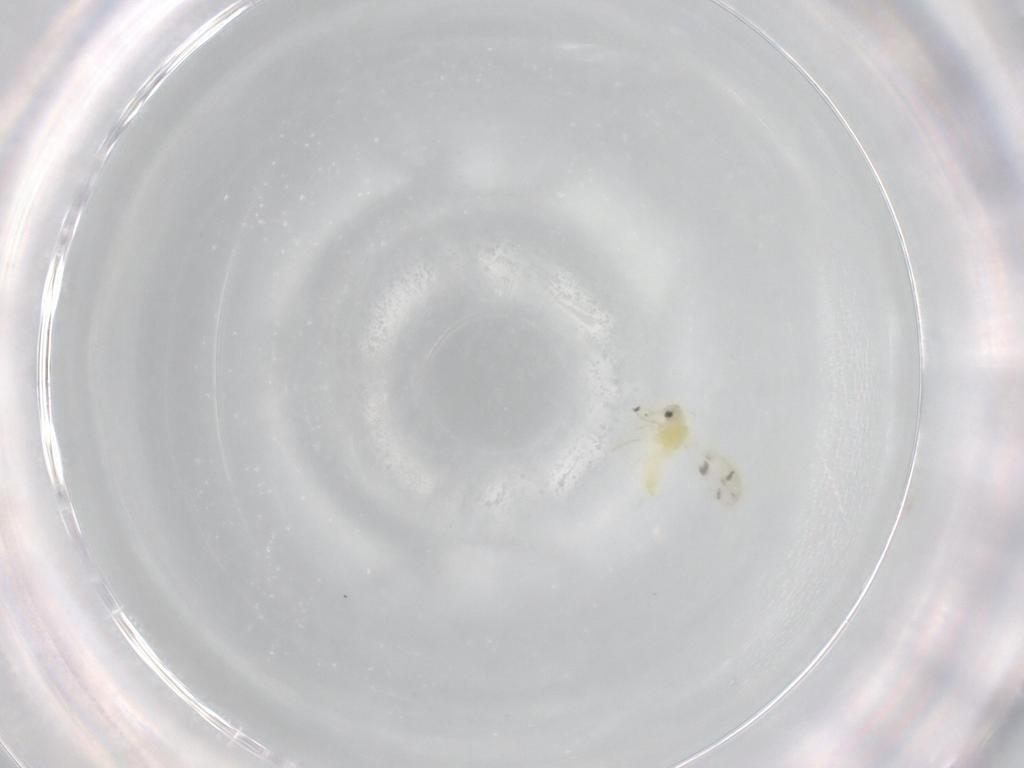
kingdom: Animalia
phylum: Arthropoda
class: Insecta
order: Hemiptera
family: Aleyrodidae
